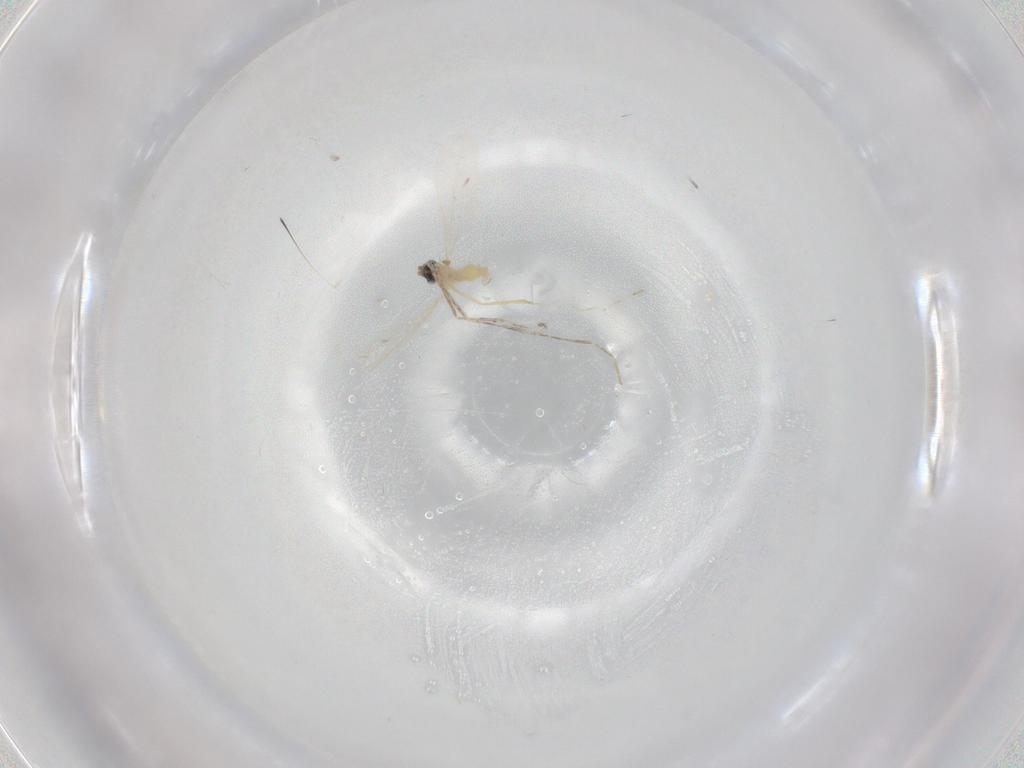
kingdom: Animalia
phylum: Arthropoda
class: Insecta
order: Diptera
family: Cecidomyiidae
